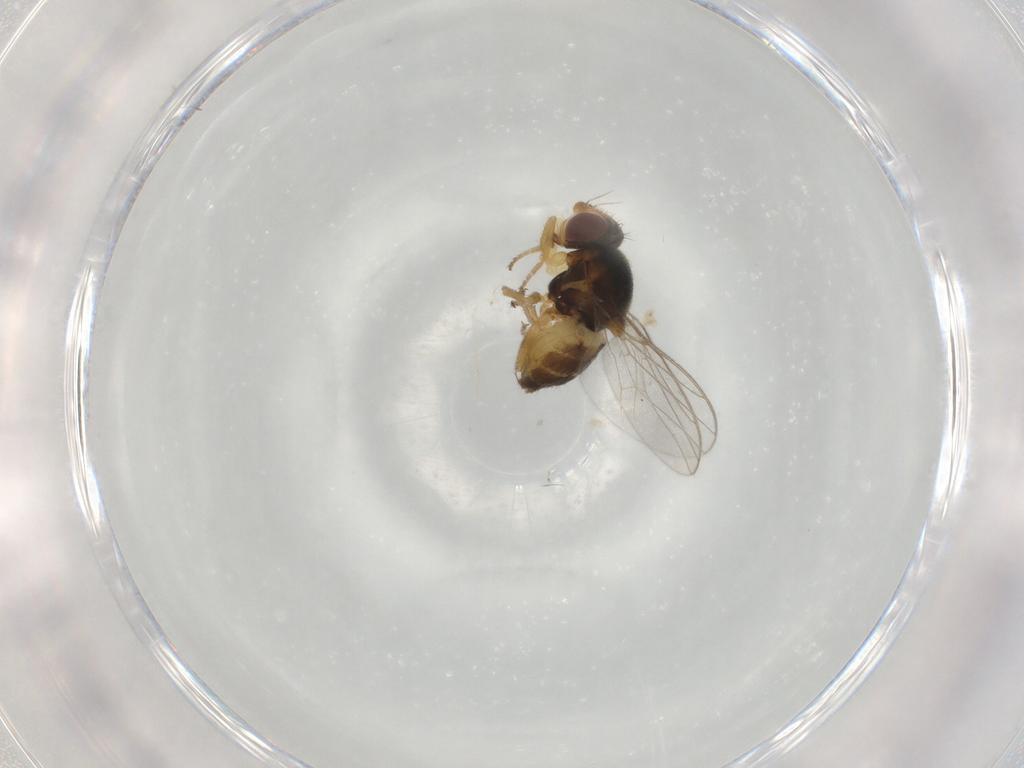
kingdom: Animalia
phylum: Arthropoda
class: Insecta
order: Diptera
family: Chloropidae
